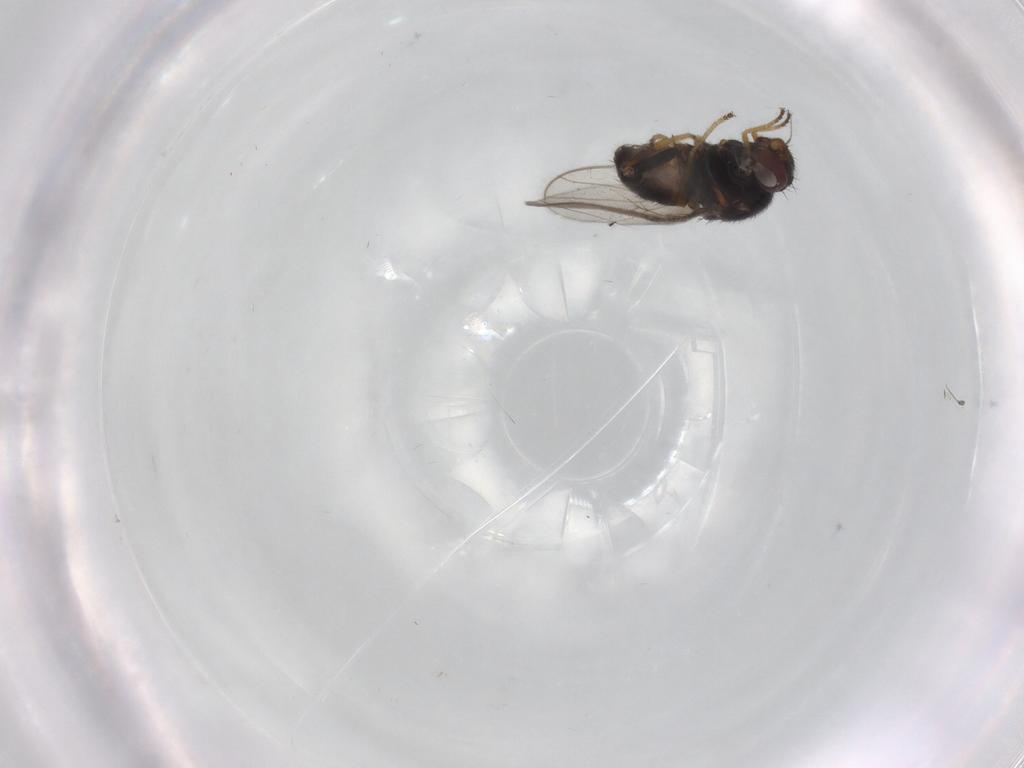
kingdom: Animalia
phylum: Arthropoda
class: Insecta
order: Diptera
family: Chloropidae
